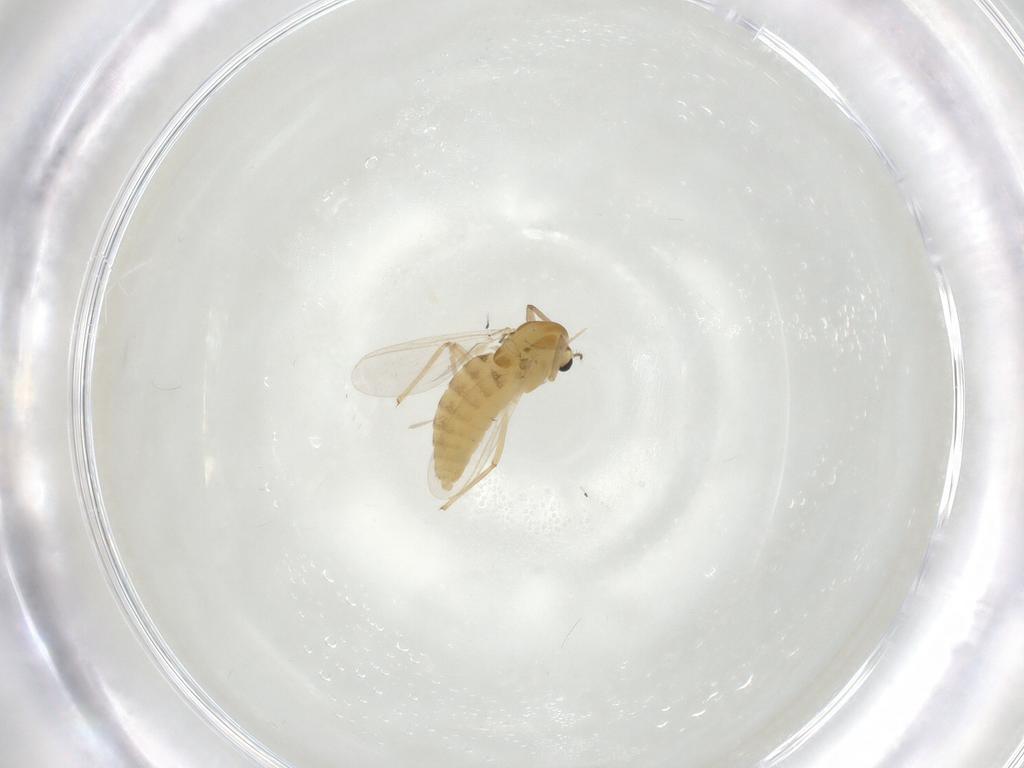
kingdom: Animalia
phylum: Arthropoda
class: Insecta
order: Diptera
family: Chironomidae
